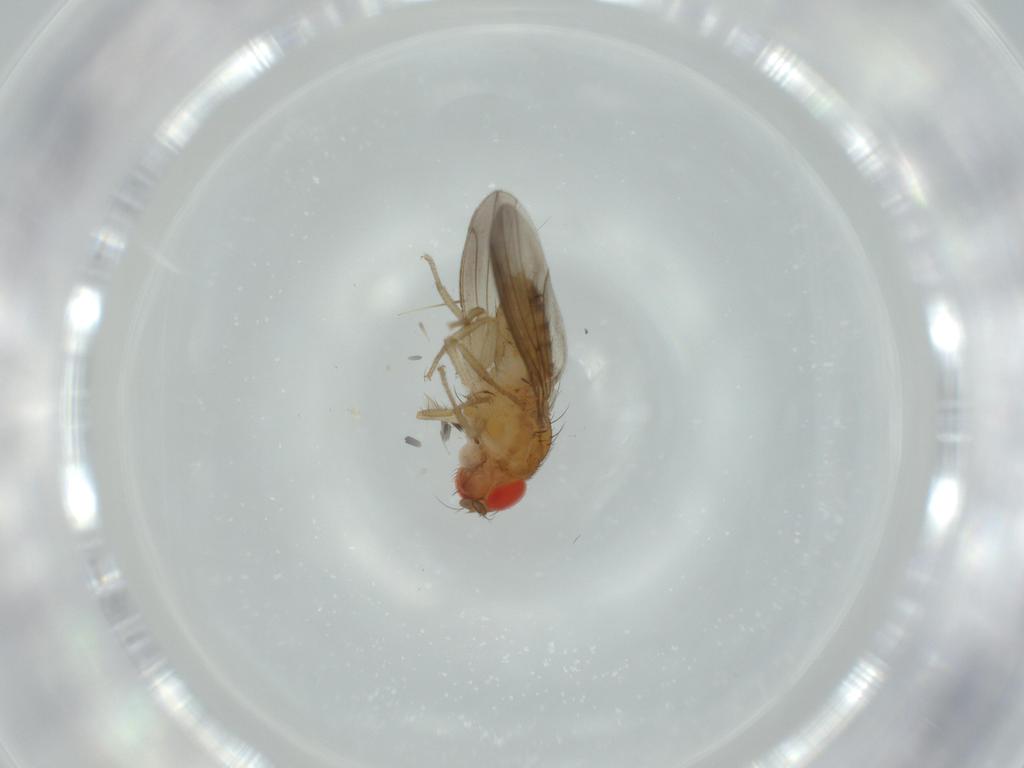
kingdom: Animalia
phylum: Arthropoda
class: Insecta
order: Diptera
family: Drosophilidae
